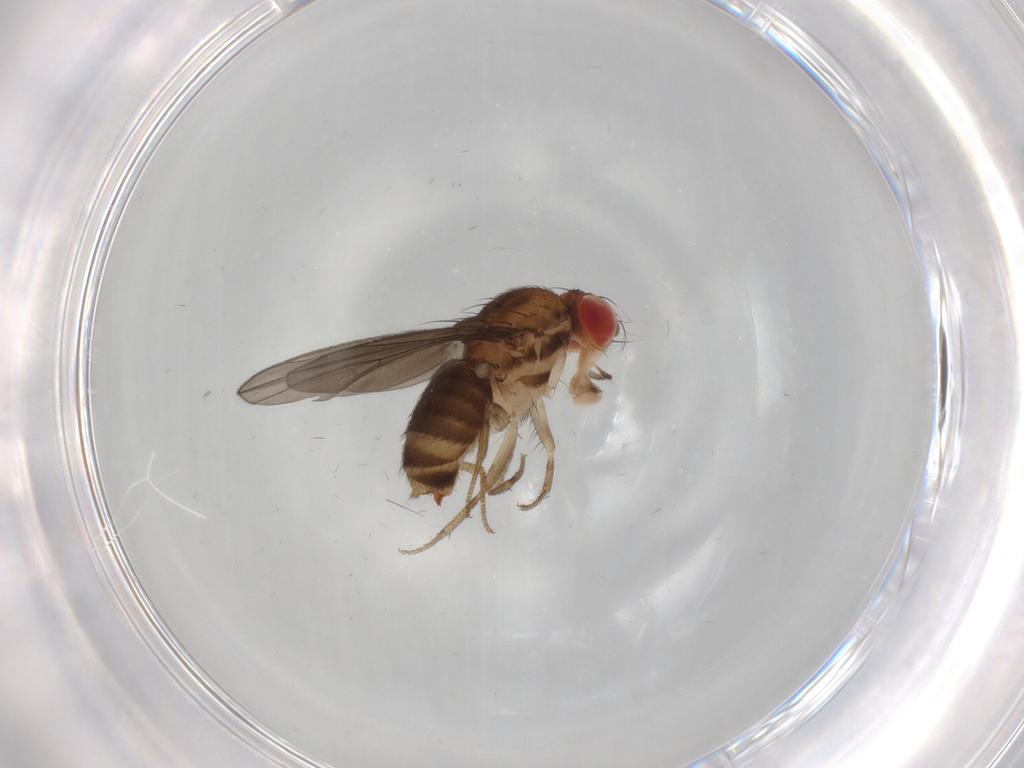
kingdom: Animalia
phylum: Arthropoda
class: Insecta
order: Diptera
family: Drosophilidae
